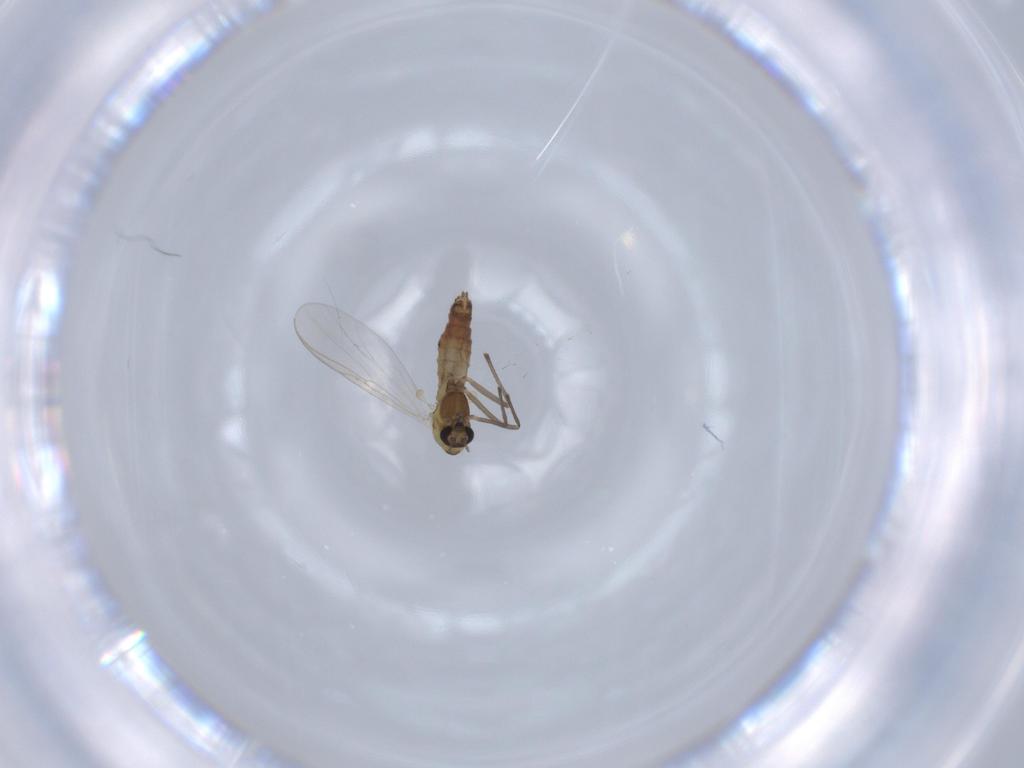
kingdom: Animalia
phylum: Arthropoda
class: Insecta
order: Diptera
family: Chironomidae
